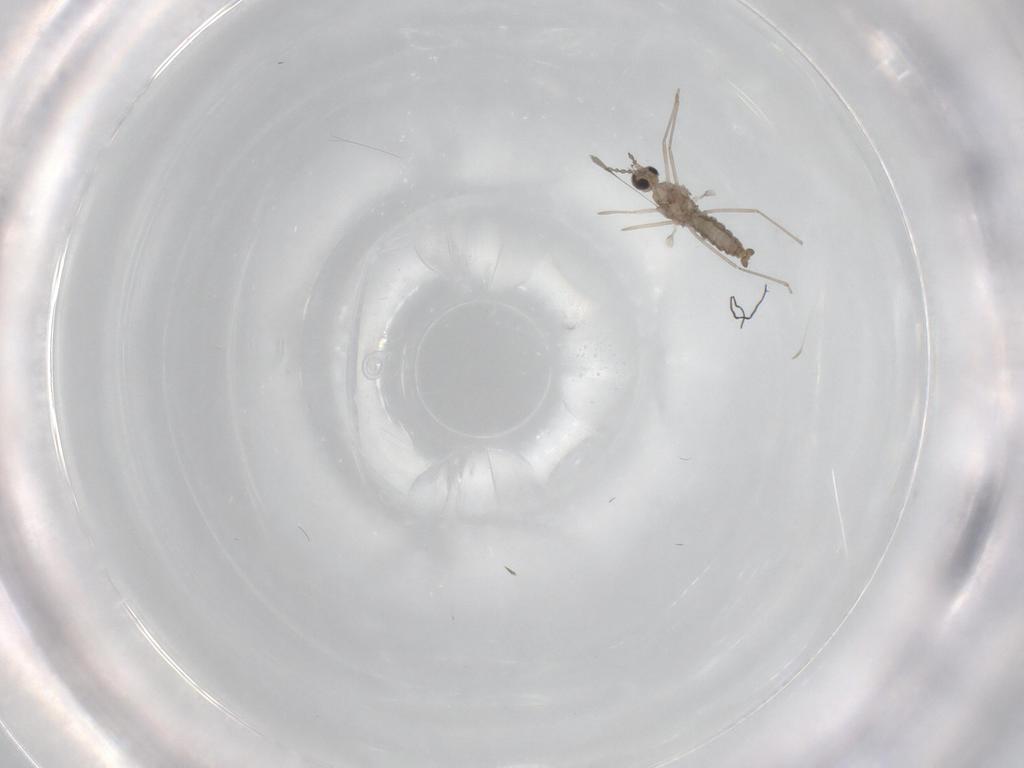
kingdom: Animalia
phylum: Arthropoda
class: Insecta
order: Diptera
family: Cecidomyiidae
